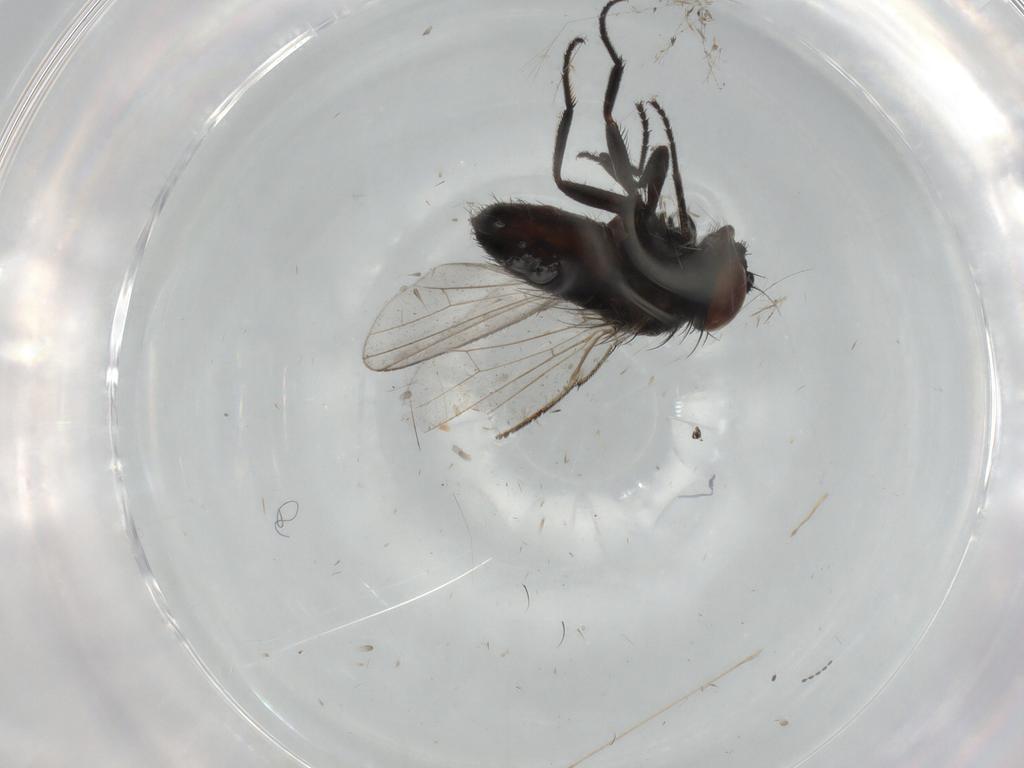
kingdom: Animalia
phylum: Arthropoda
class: Insecta
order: Diptera
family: Milichiidae
